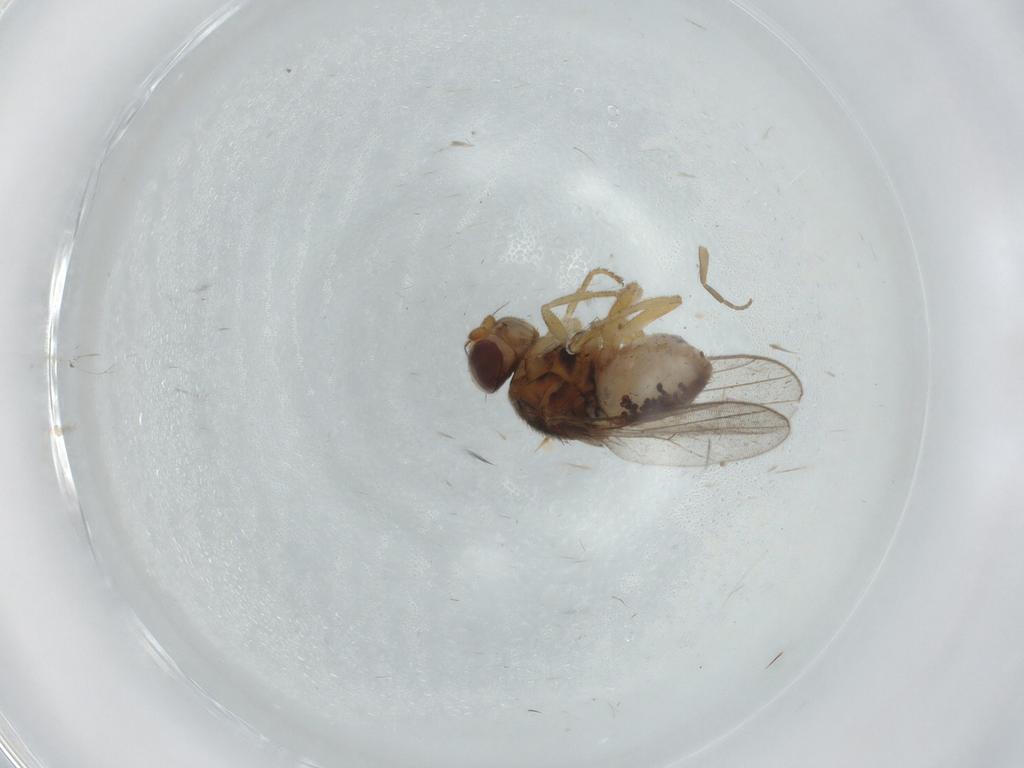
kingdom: Animalia
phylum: Arthropoda
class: Insecta
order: Diptera
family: Chloropidae
